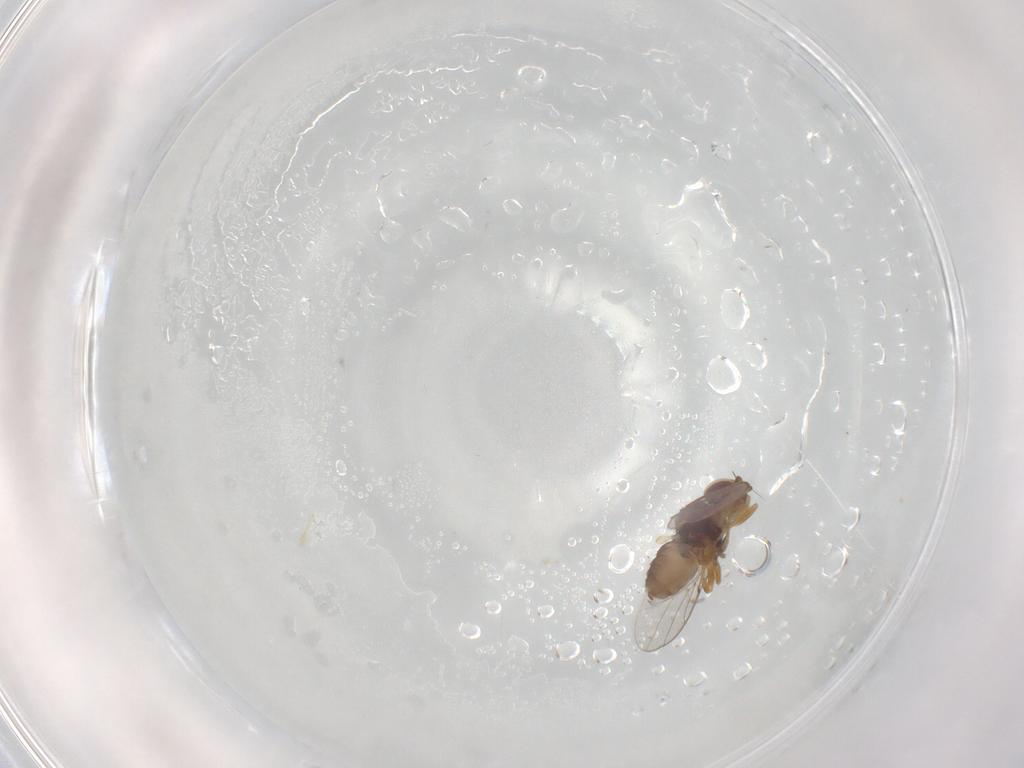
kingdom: Animalia
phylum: Arthropoda
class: Insecta
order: Diptera
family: Chloropidae
